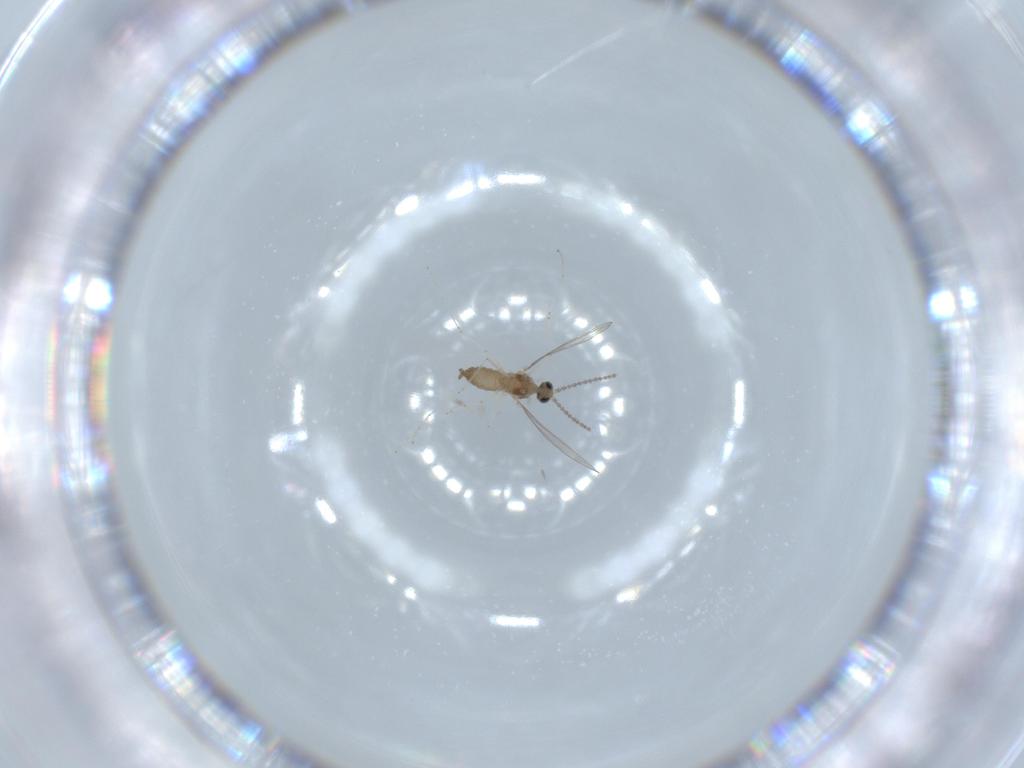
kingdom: Animalia
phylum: Arthropoda
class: Insecta
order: Diptera
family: Cecidomyiidae
